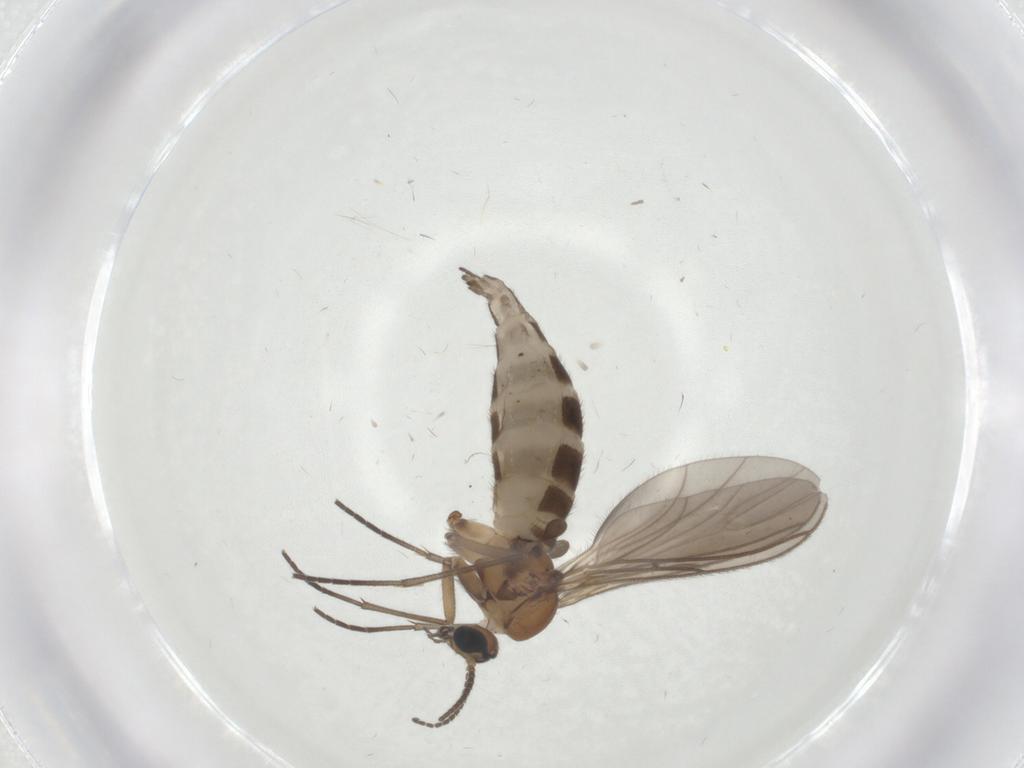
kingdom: Animalia
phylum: Arthropoda
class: Insecta
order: Diptera
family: Sciaridae
